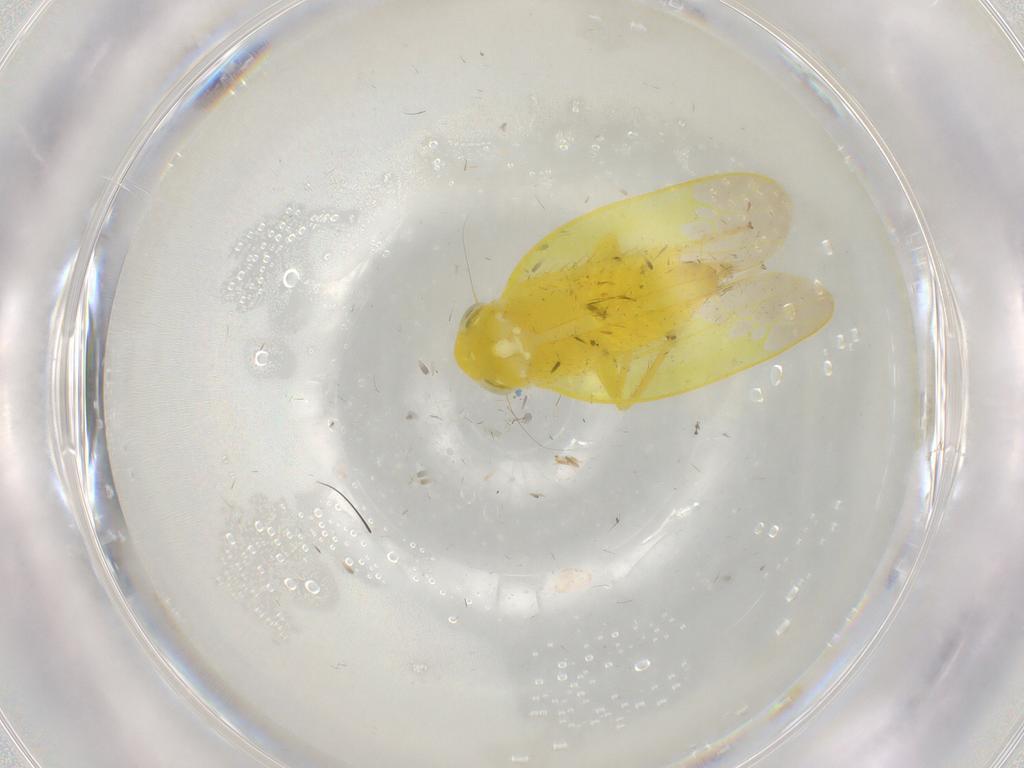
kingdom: Animalia
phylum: Arthropoda
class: Insecta
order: Hemiptera
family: Cicadellidae
